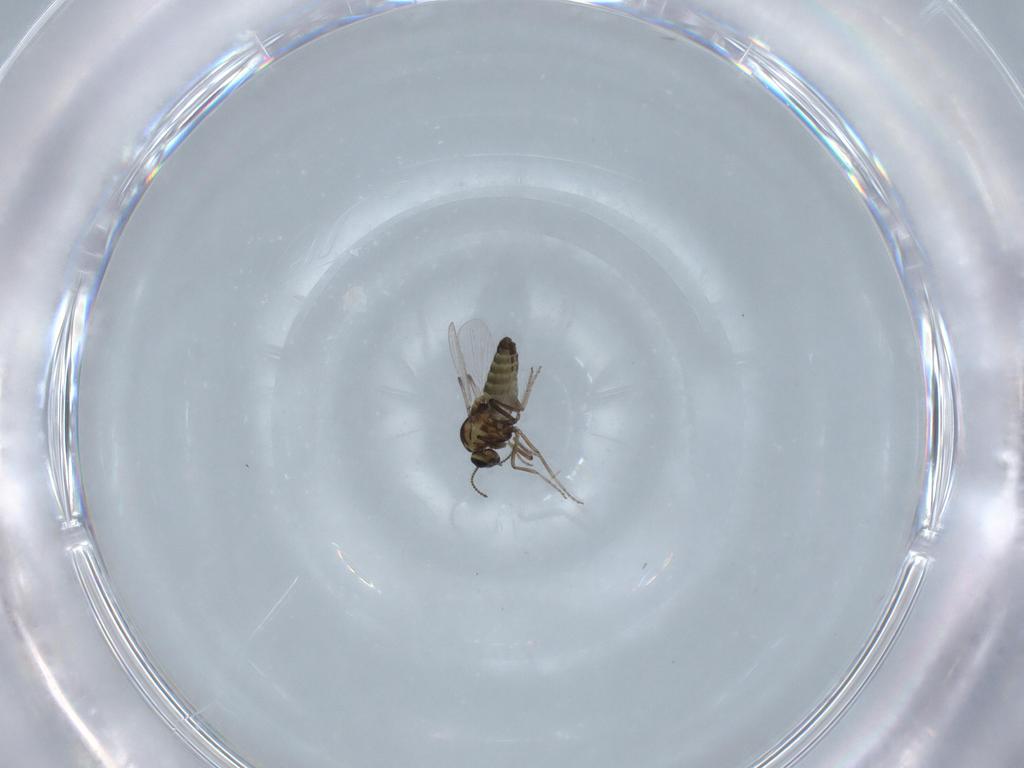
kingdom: Animalia
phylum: Arthropoda
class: Insecta
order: Diptera
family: Ceratopogonidae
